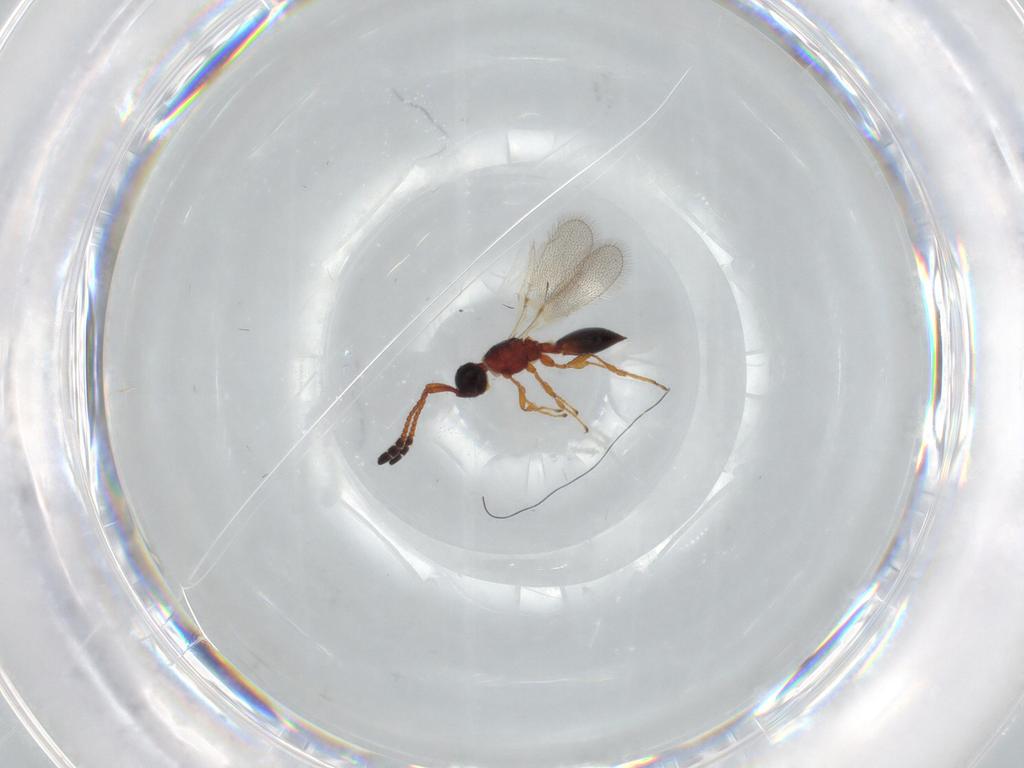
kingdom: Animalia
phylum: Arthropoda
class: Insecta
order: Hymenoptera
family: Diapriidae
